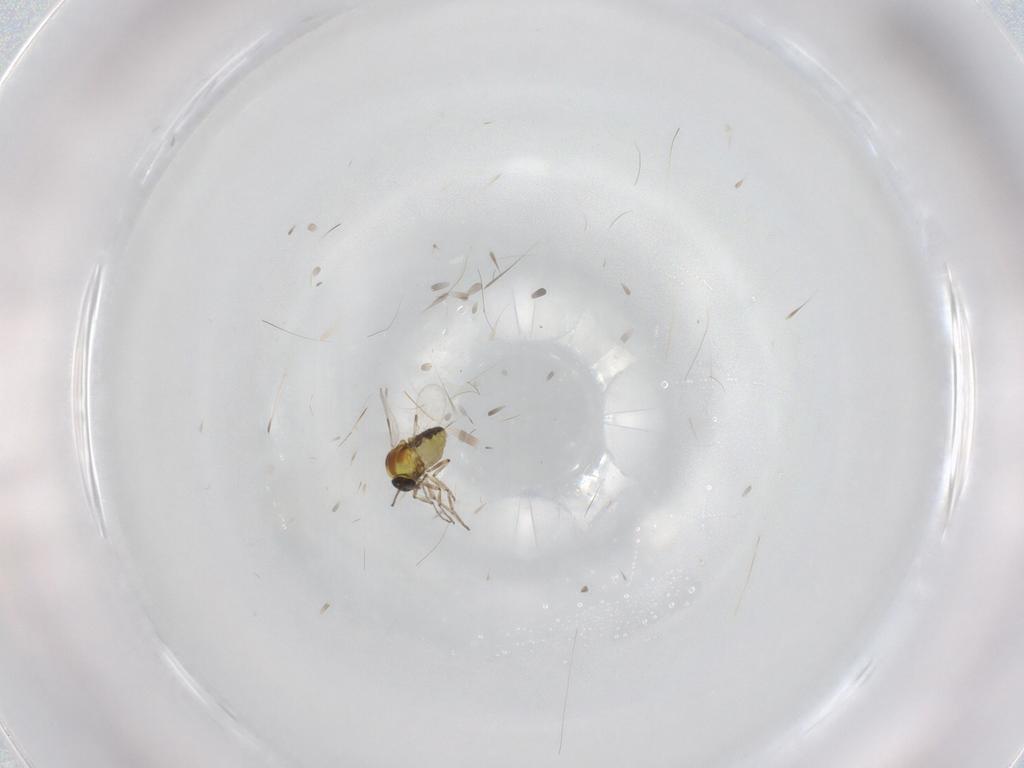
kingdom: Animalia
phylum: Arthropoda
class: Insecta
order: Diptera
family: Ceratopogonidae
